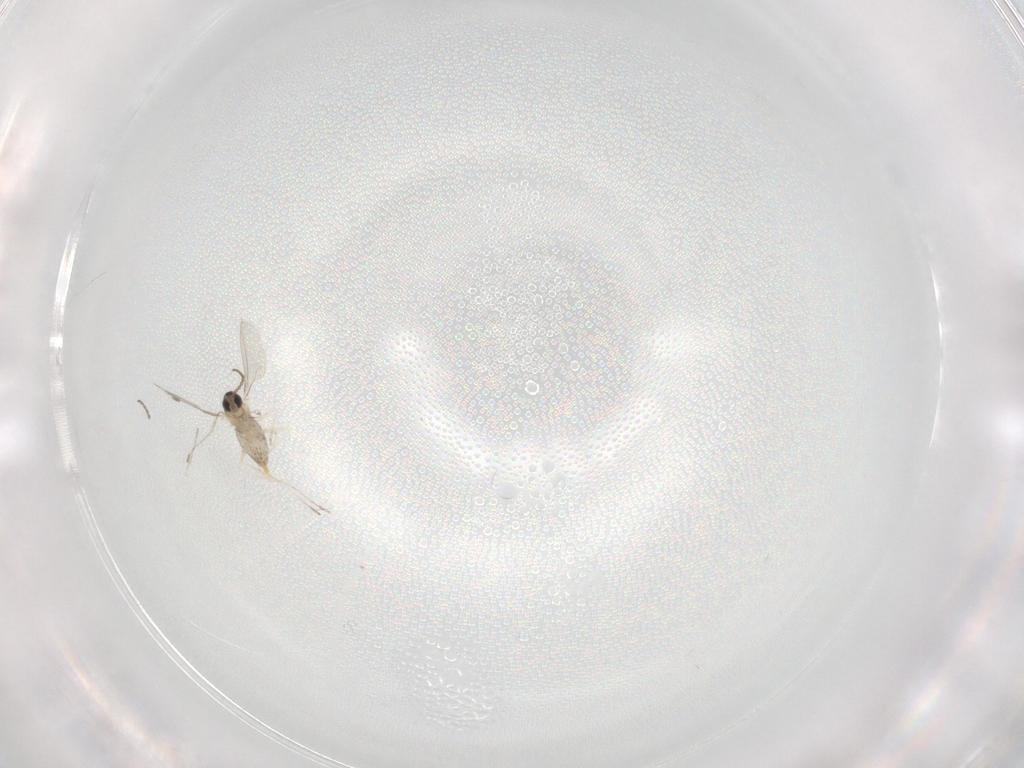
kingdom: Animalia
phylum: Arthropoda
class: Insecta
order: Diptera
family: Cecidomyiidae
